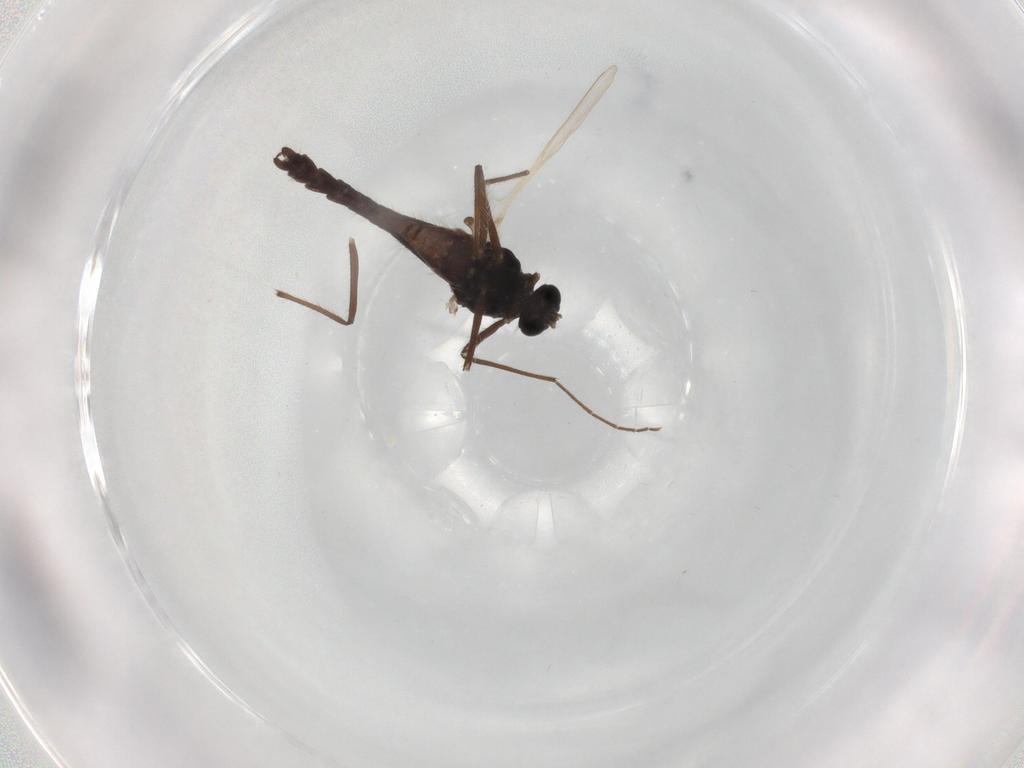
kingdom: Animalia
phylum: Arthropoda
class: Insecta
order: Diptera
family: Hybotidae
